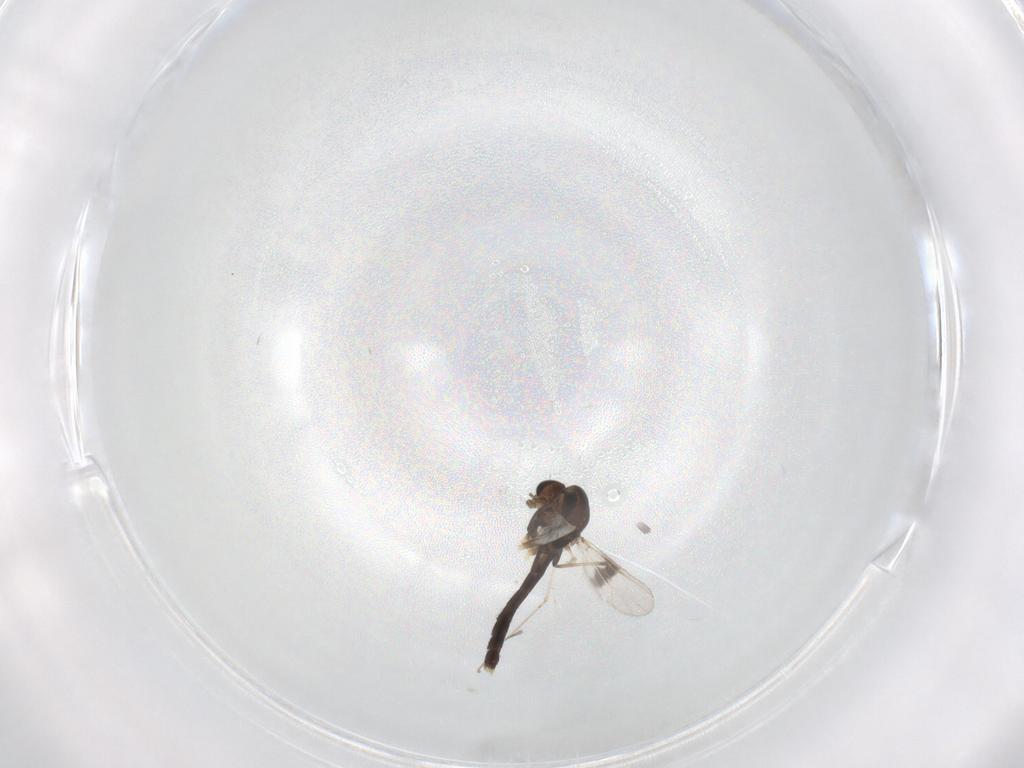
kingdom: Animalia
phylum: Arthropoda
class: Insecta
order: Diptera
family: Chironomidae
